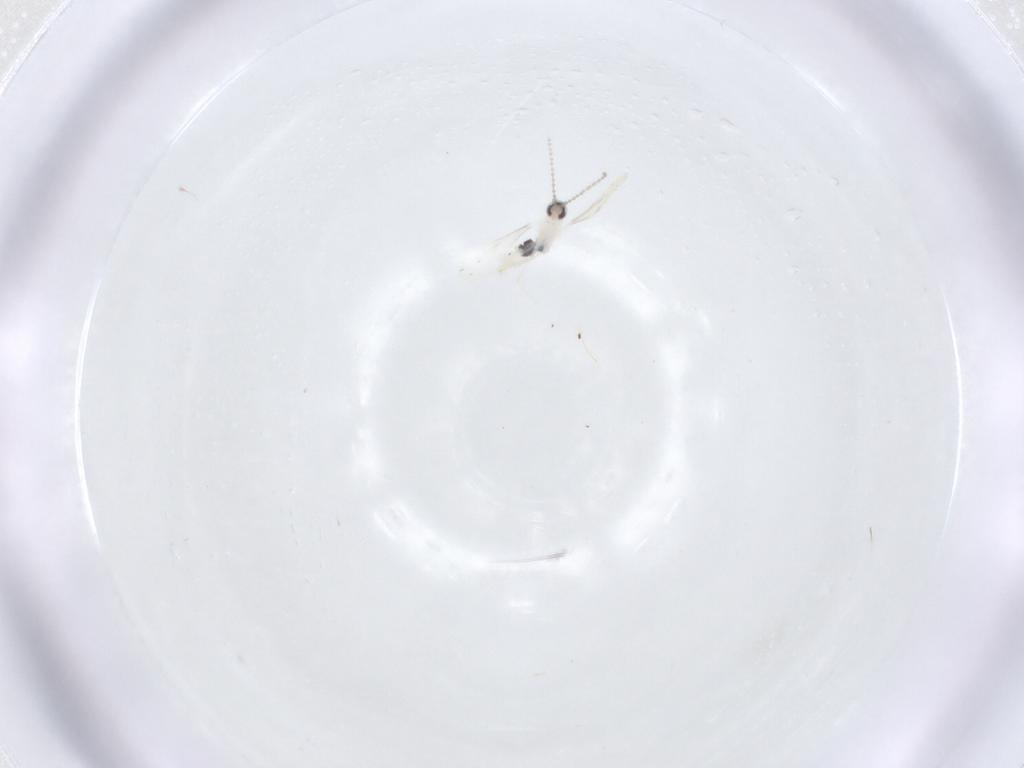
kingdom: Animalia
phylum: Arthropoda
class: Insecta
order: Diptera
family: Cecidomyiidae
